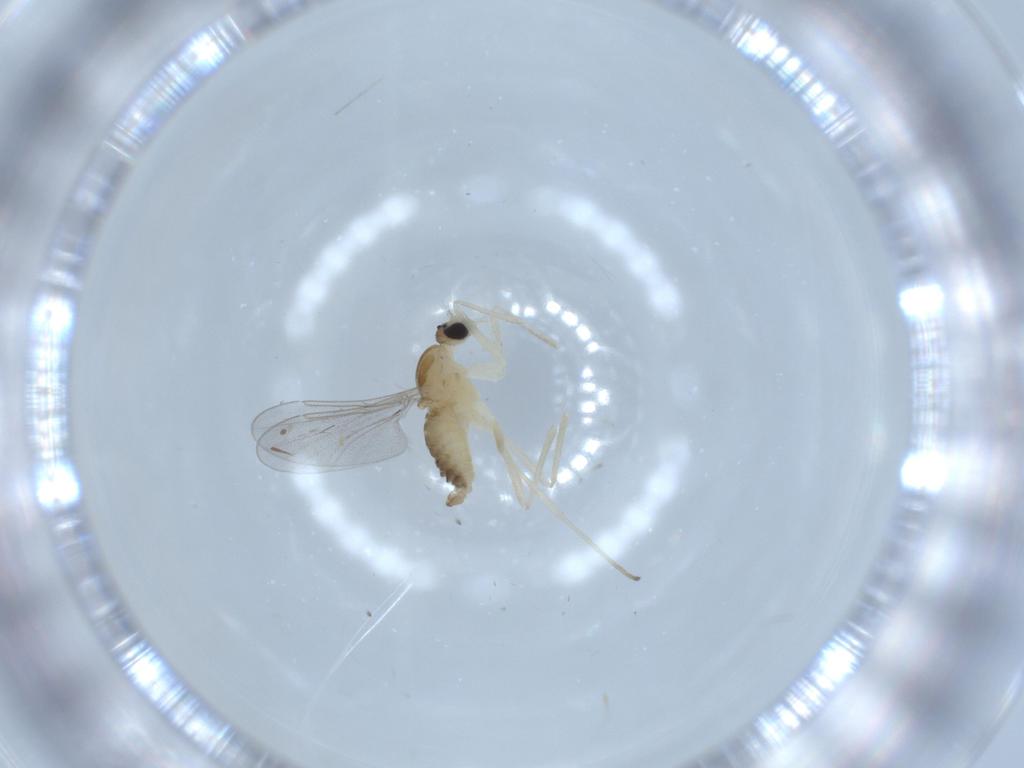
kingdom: Animalia
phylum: Arthropoda
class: Insecta
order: Diptera
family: Cecidomyiidae
